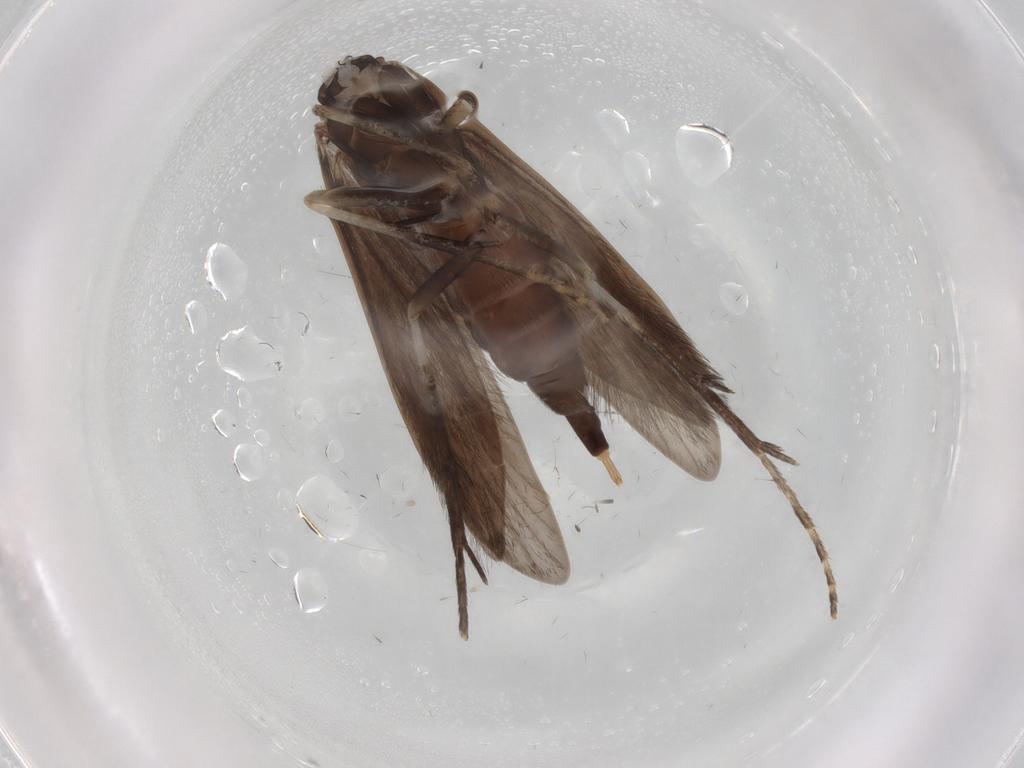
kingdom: Animalia
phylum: Arthropoda
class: Insecta
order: Trichoptera
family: Xiphocentronidae
